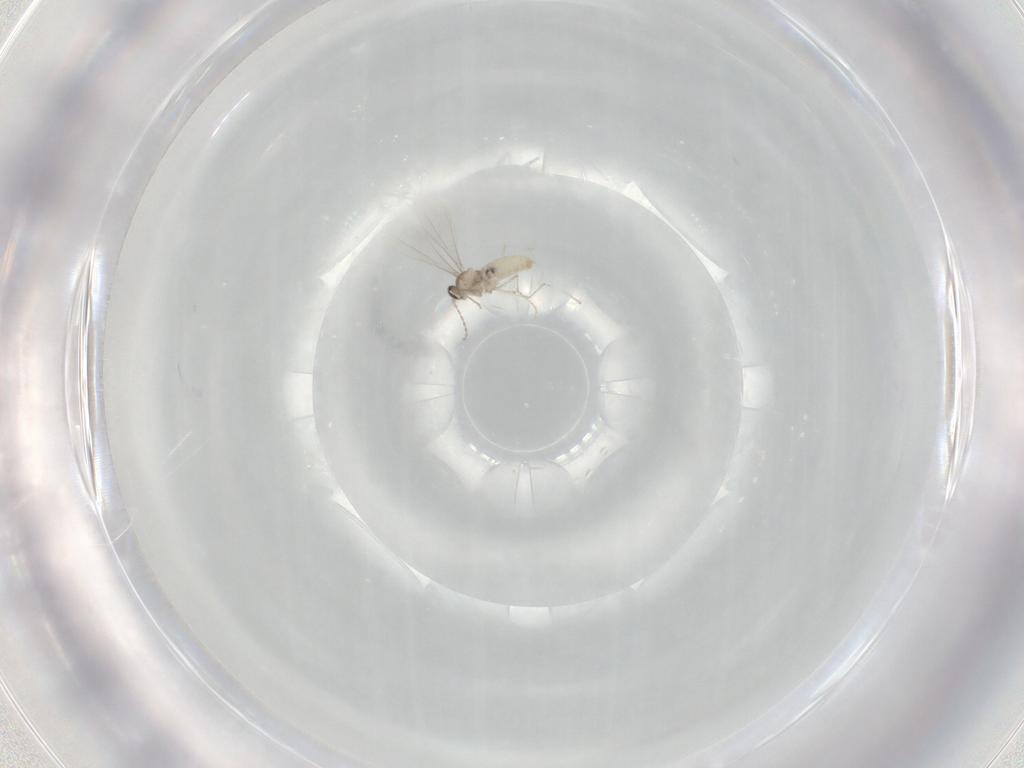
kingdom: Animalia
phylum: Arthropoda
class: Insecta
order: Diptera
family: Cecidomyiidae
